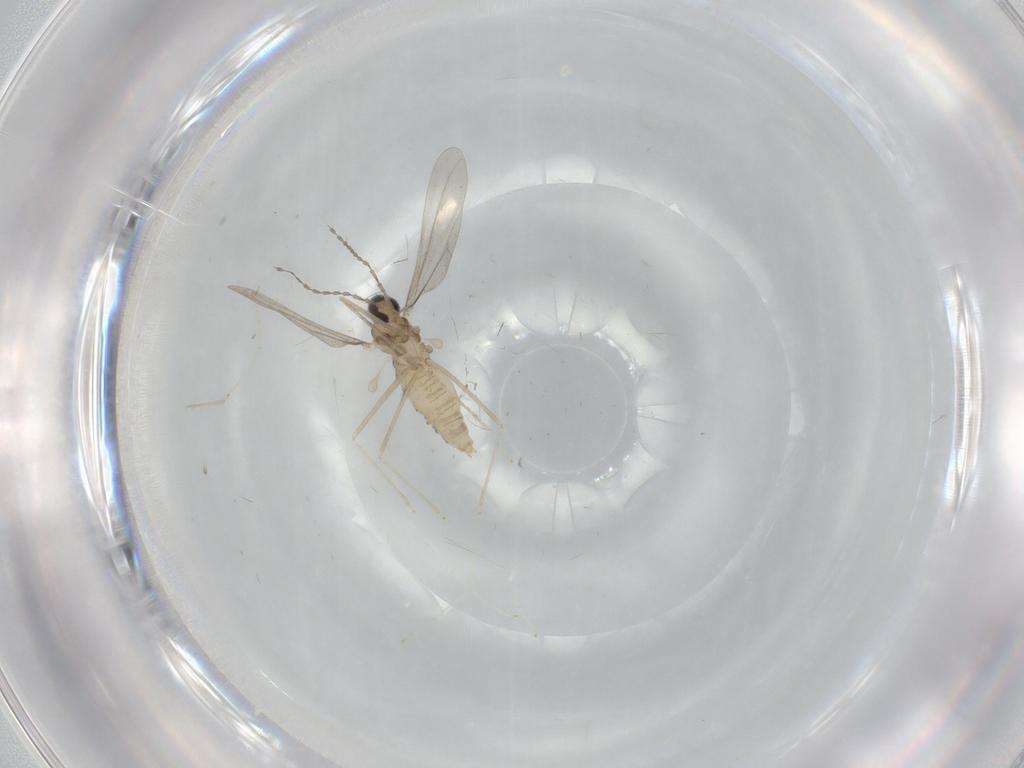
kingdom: Animalia
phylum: Arthropoda
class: Insecta
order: Diptera
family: Cecidomyiidae
